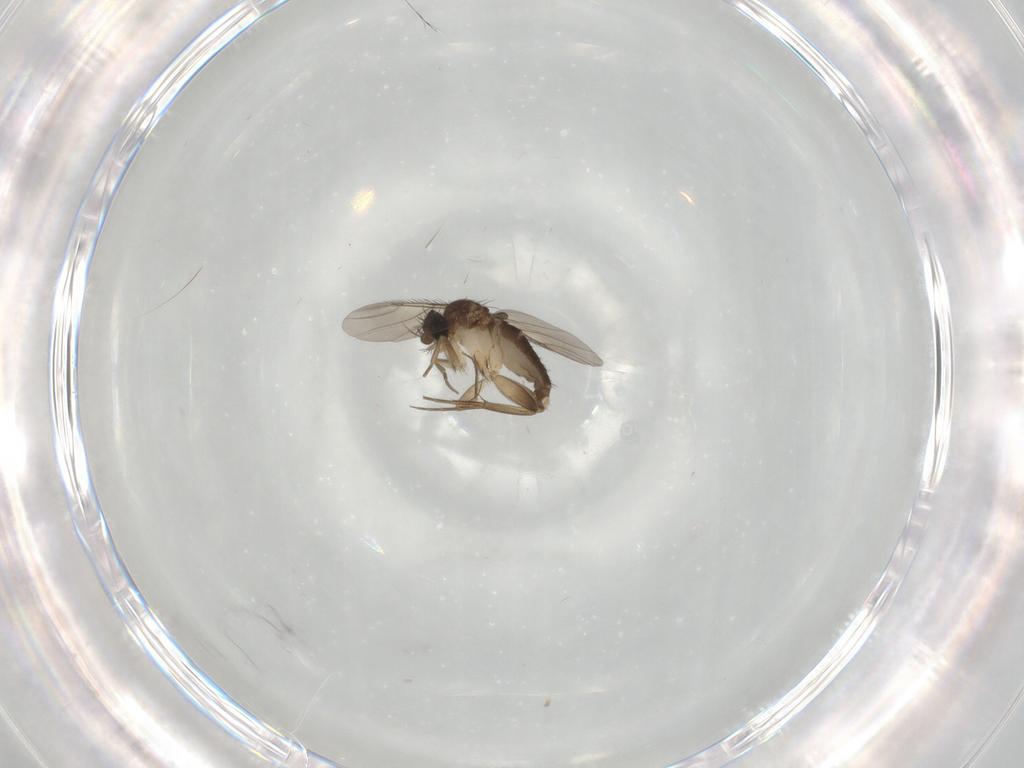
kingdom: Animalia
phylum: Arthropoda
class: Insecta
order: Diptera
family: Phoridae
